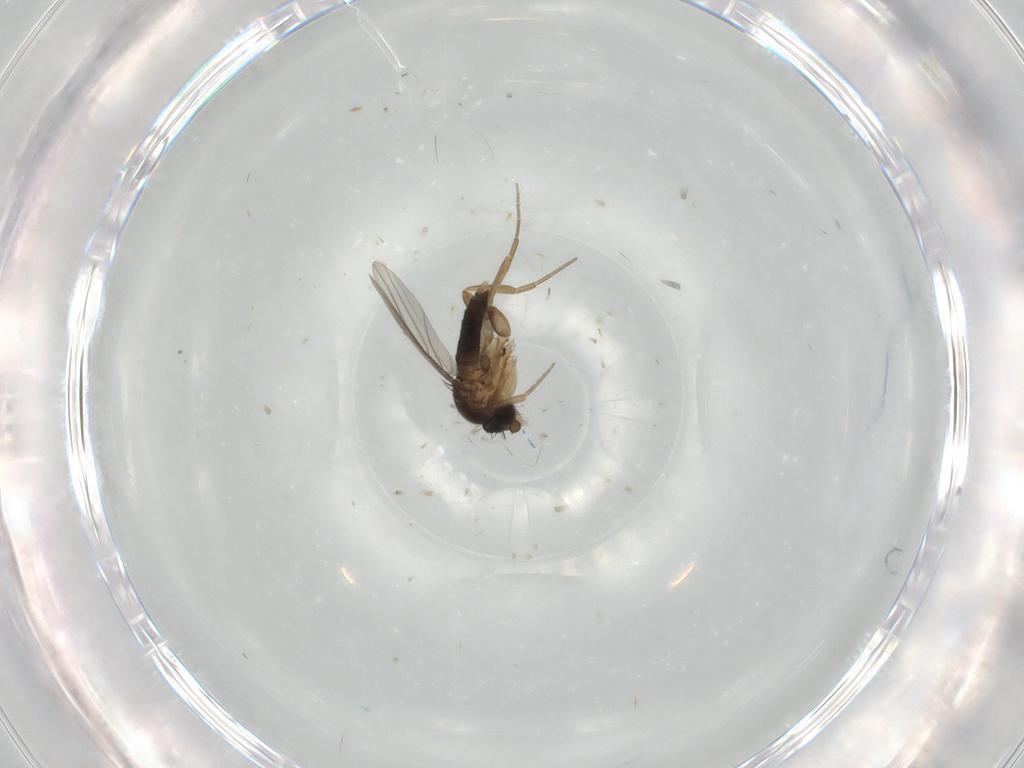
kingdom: Animalia
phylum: Arthropoda
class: Insecta
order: Diptera
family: Phoridae
